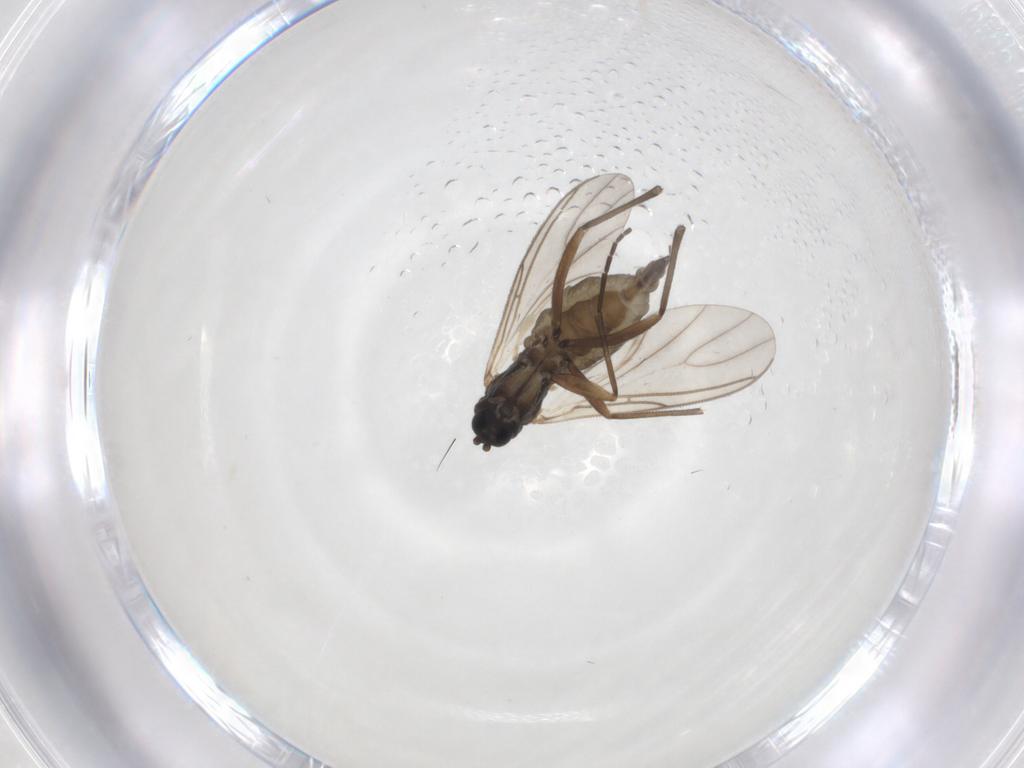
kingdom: Animalia
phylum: Arthropoda
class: Insecta
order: Diptera
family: Sciaridae
